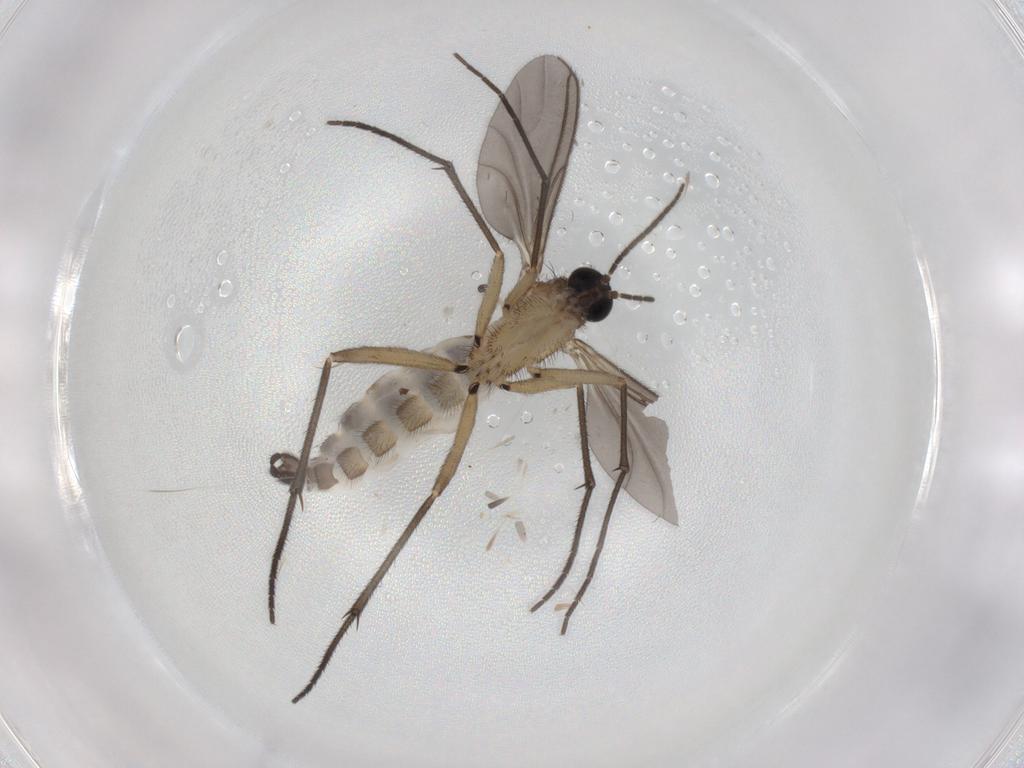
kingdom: Animalia
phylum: Arthropoda
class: Insecta
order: Diptera
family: Sciaridae
